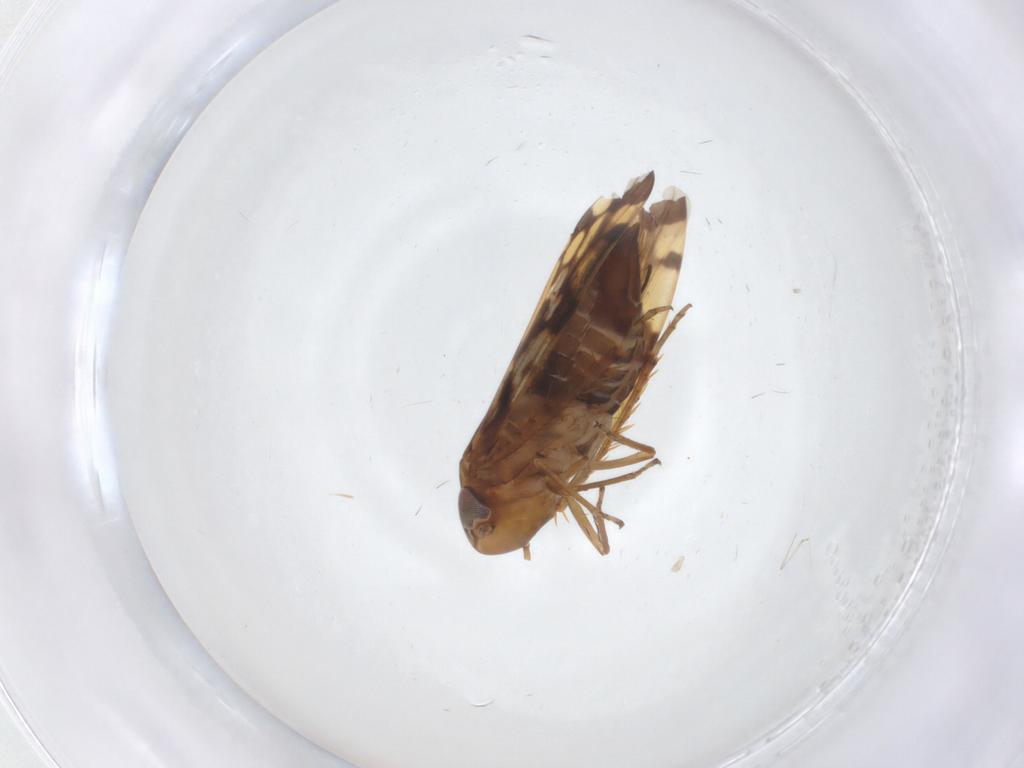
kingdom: Animalia
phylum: Arthropoda
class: Insecta
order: Hemiptera
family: Cicadellidae
